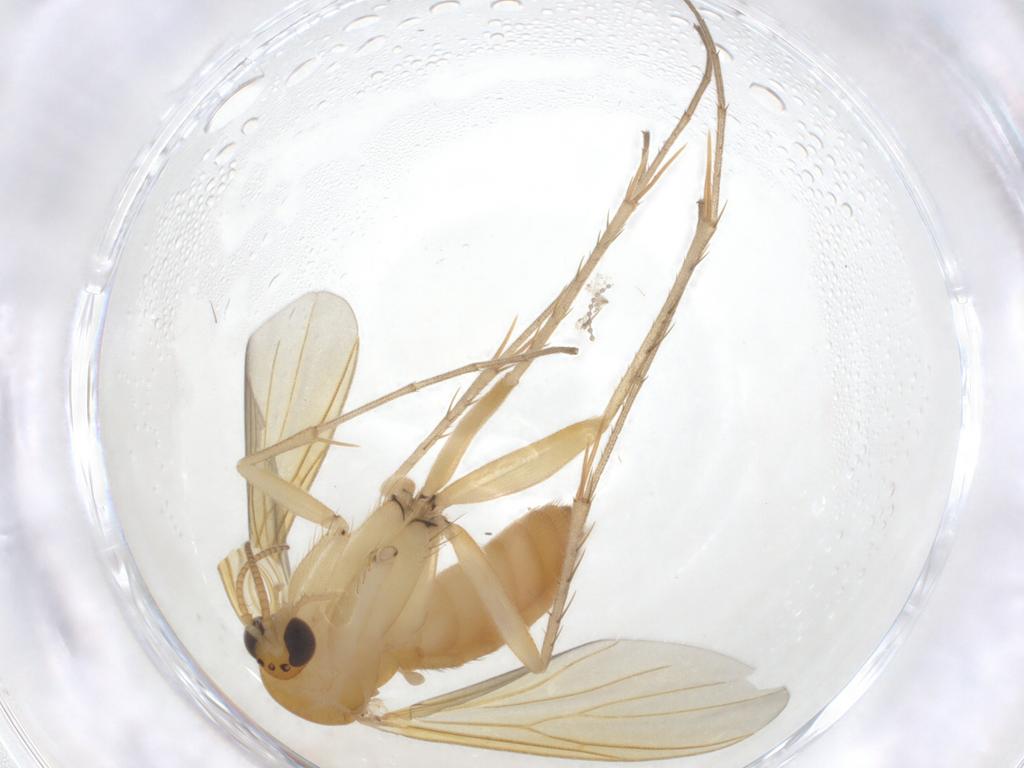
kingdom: Animalia
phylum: Arthropoda
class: Insecta
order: Diptera
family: Mycetophilidae
